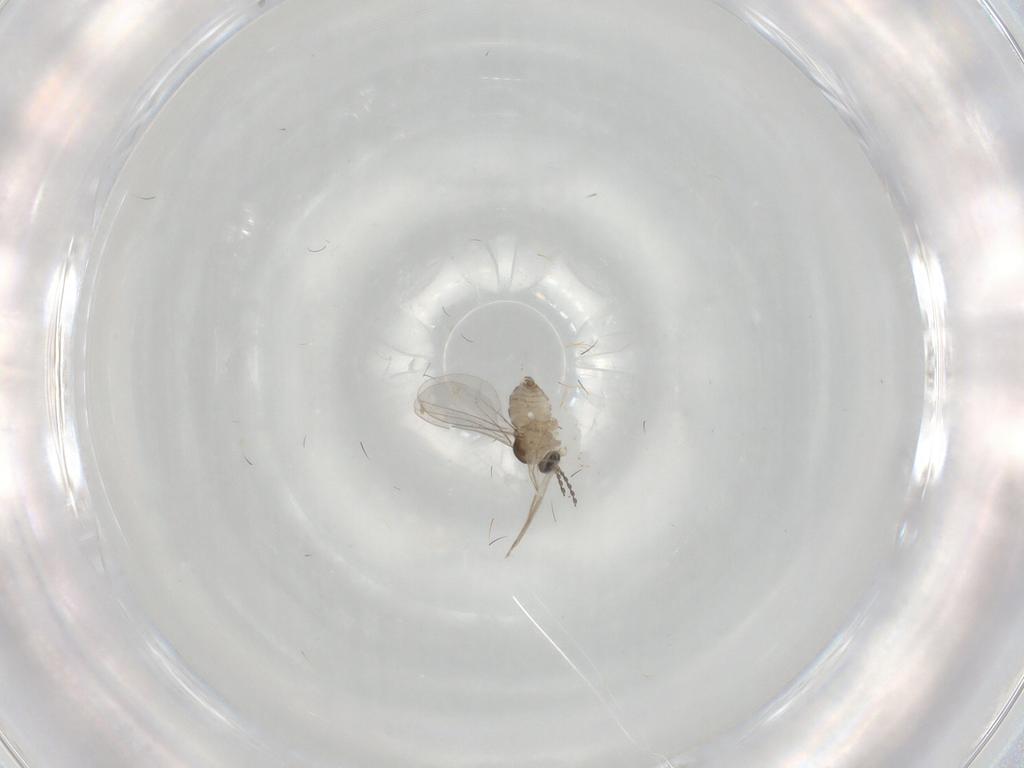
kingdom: Animalia
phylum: Arthropoda
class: Insecta
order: Diptera
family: Cecidomyiidae
